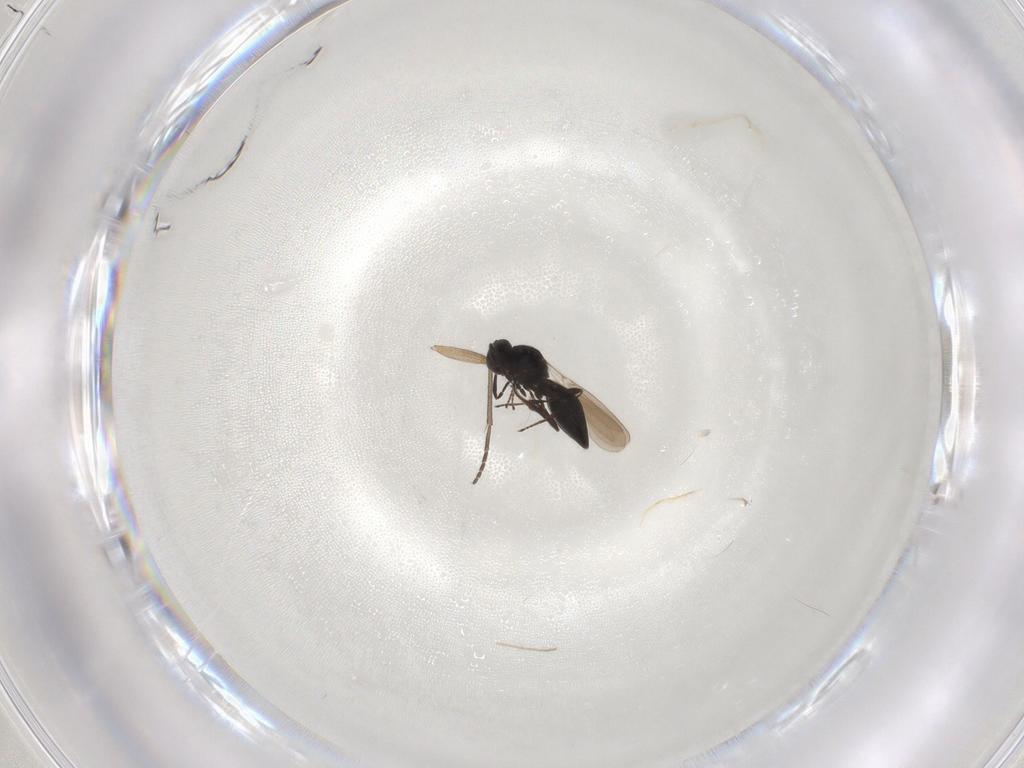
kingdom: Animalia
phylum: Arthropoda
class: Insecta
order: Hymenoptera
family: Platygastridae
